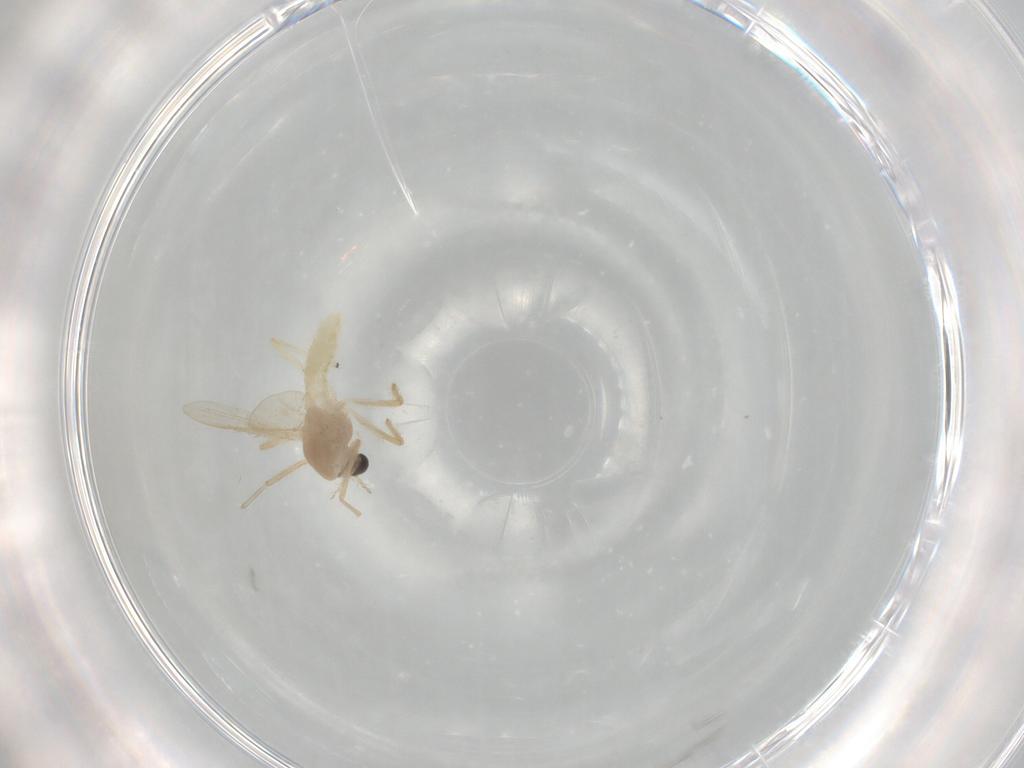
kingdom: Animalia
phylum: Arthropoda
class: Insecta
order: Diptera
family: Chironomidae
